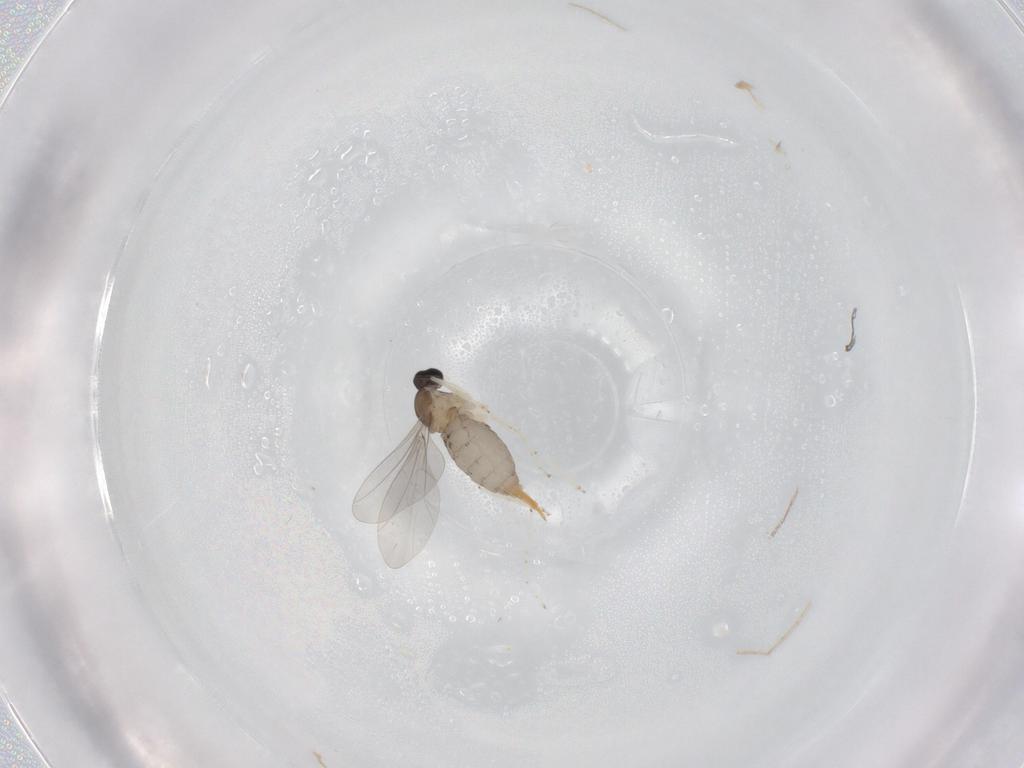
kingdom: Animalia
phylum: Arthropoda
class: Insecta
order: Diptera
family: Cecidomyiidae
